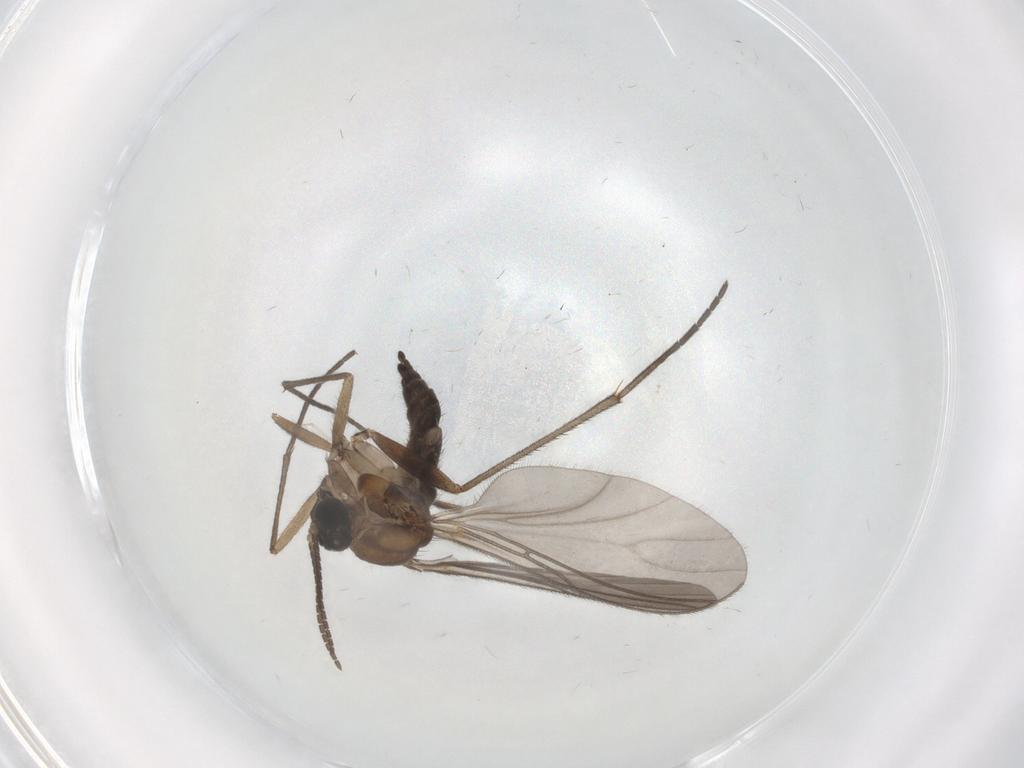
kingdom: Animalia
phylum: Arthropoda
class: Insecta
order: Diptera
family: Sciaridae
